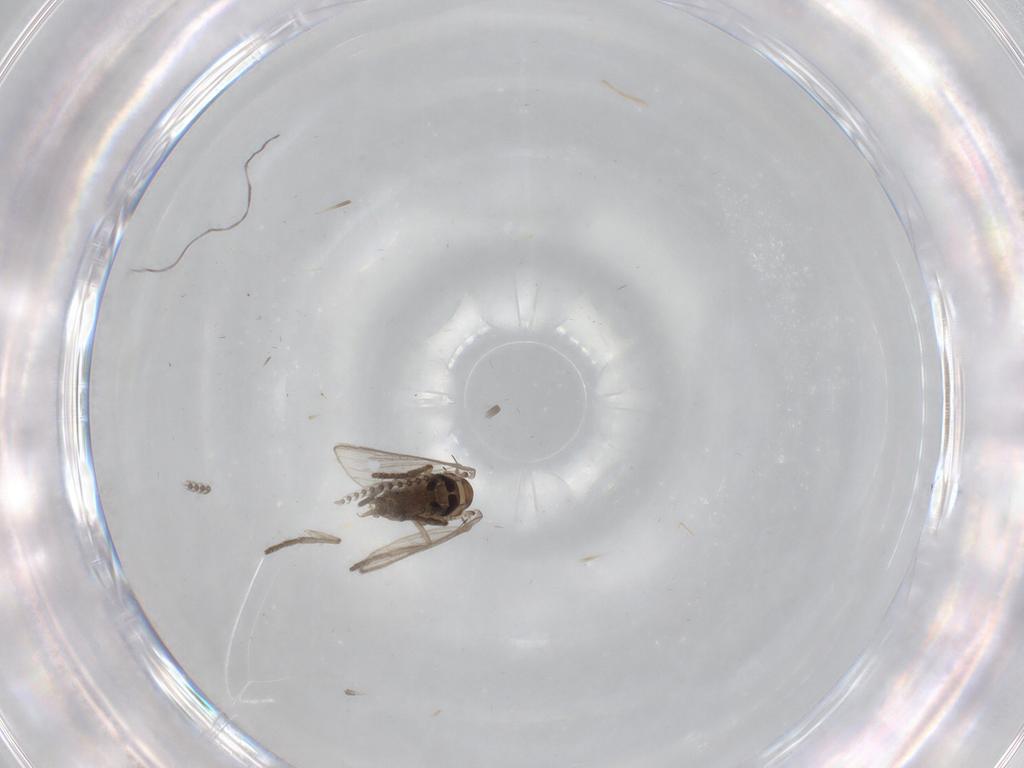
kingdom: Animalia
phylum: Arthropoda
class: Insecta
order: Diptera
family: Psychodidae
